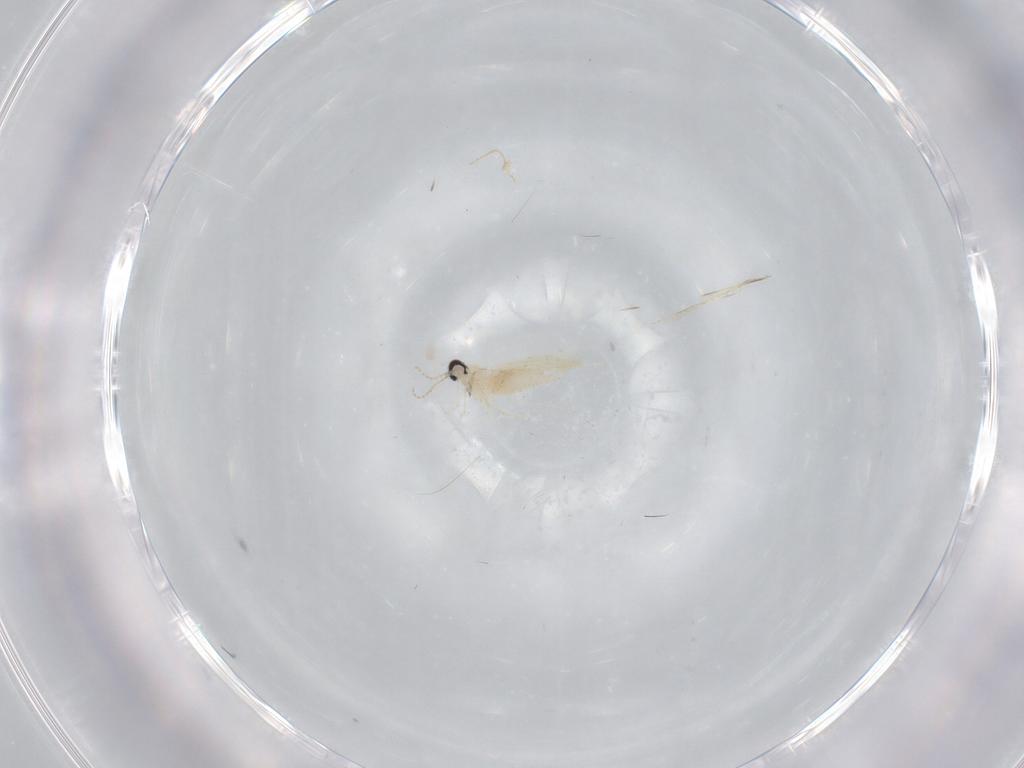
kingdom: Animalia
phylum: Arthropoda
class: Insecta
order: Diptera
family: Cecidomyiidae
